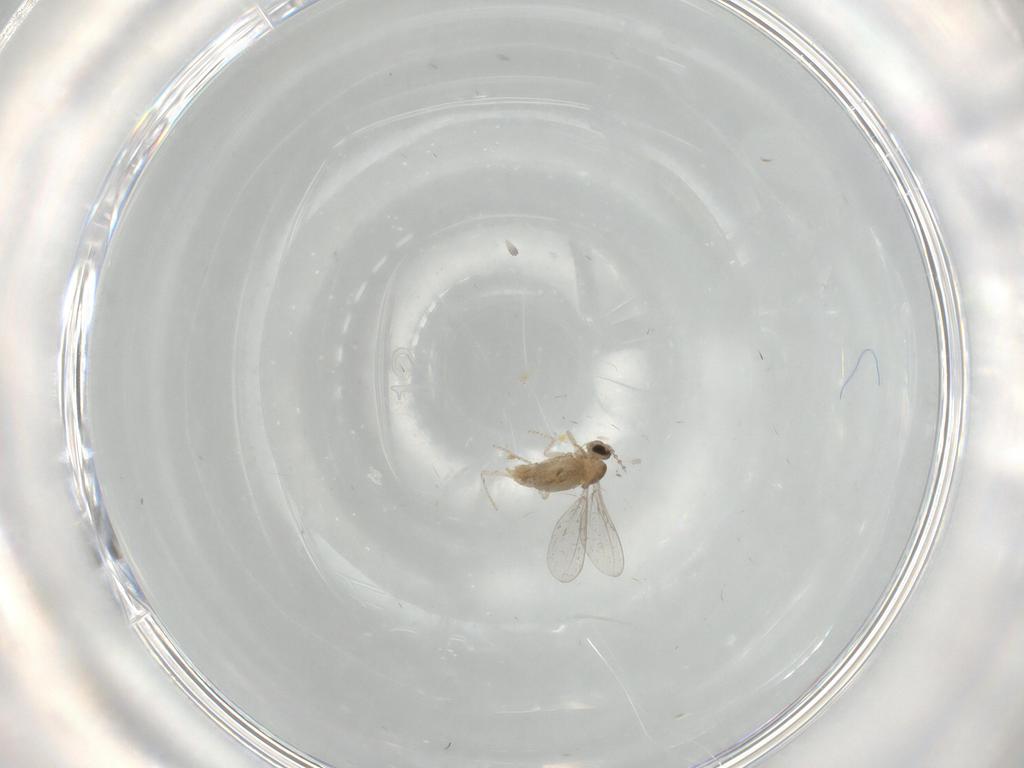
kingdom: Animalia
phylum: Arthropoda
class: Insecta
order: Diptera
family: Cecidomyiidae
